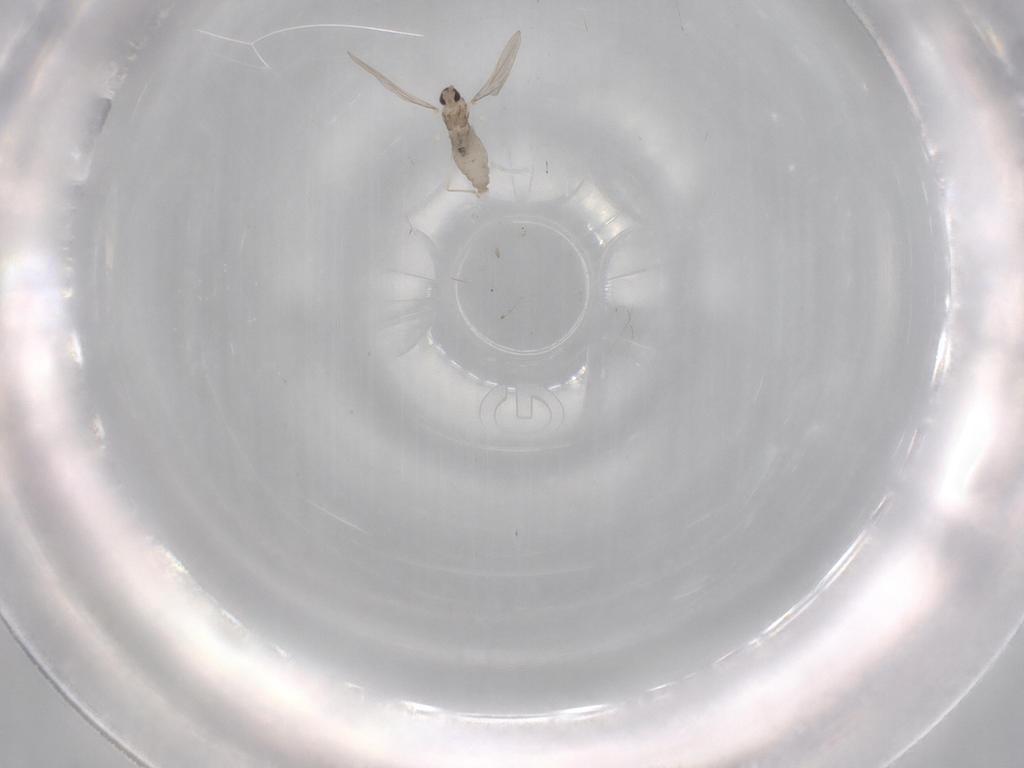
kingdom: Animalia
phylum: Arthropoda
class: Insecta
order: Diptera
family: Cecidomyiidae
